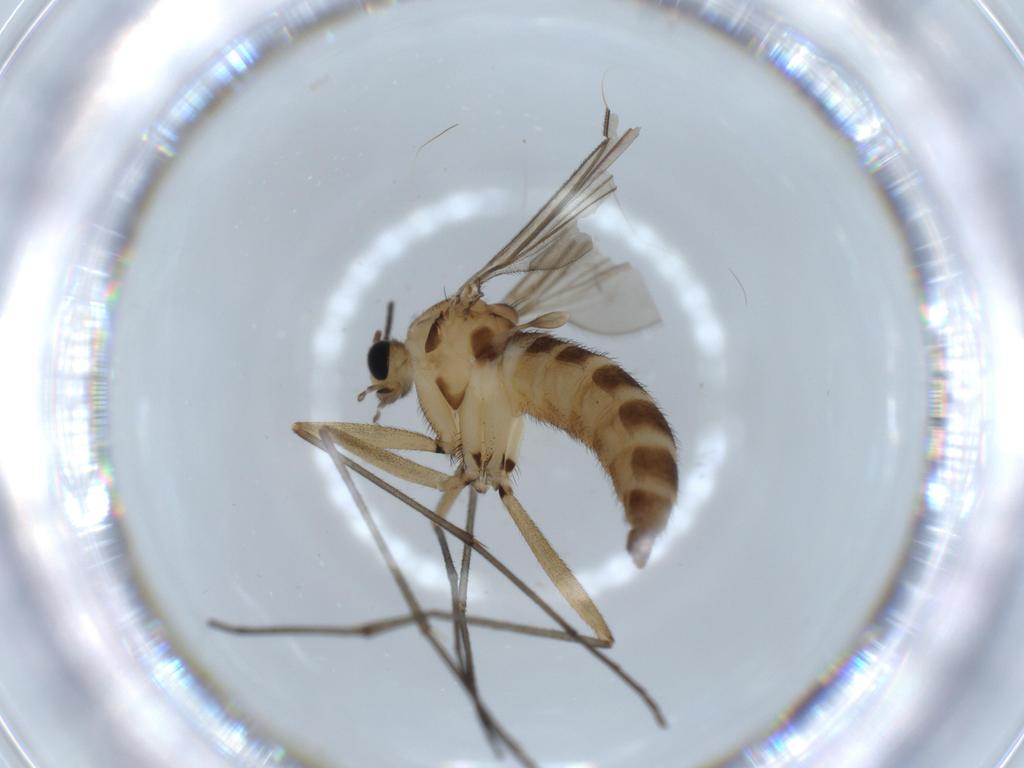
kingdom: Animalia
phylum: Arthropoda
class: Insecta
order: Diptera
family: Sciaridae
